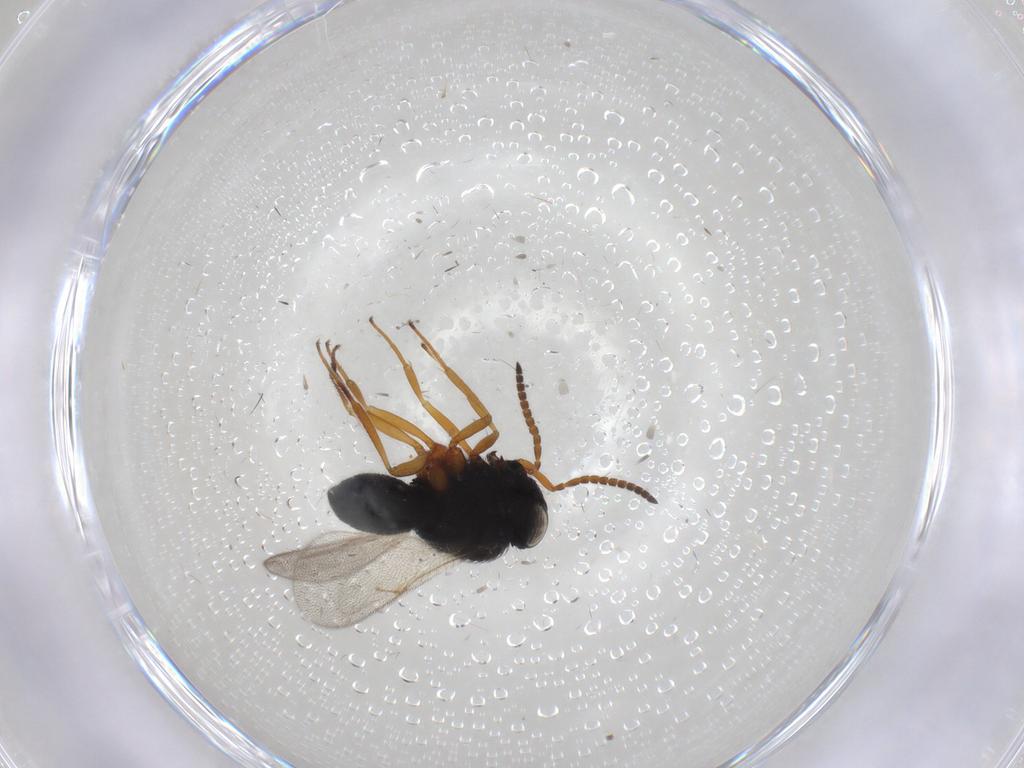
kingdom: Animalia
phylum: Arthropoda
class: Insecta
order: Hymenoptera
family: Scelionidae
